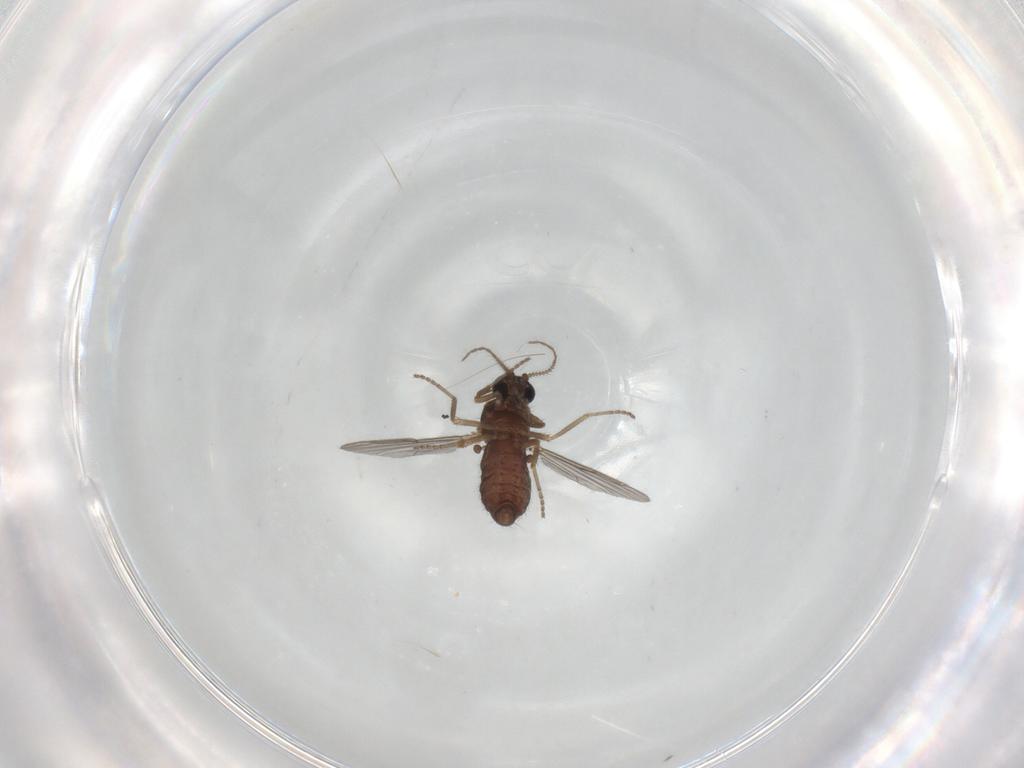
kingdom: Animalia
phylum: Arthropoda
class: Insecta
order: Diptera
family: Ceratopogonidae
